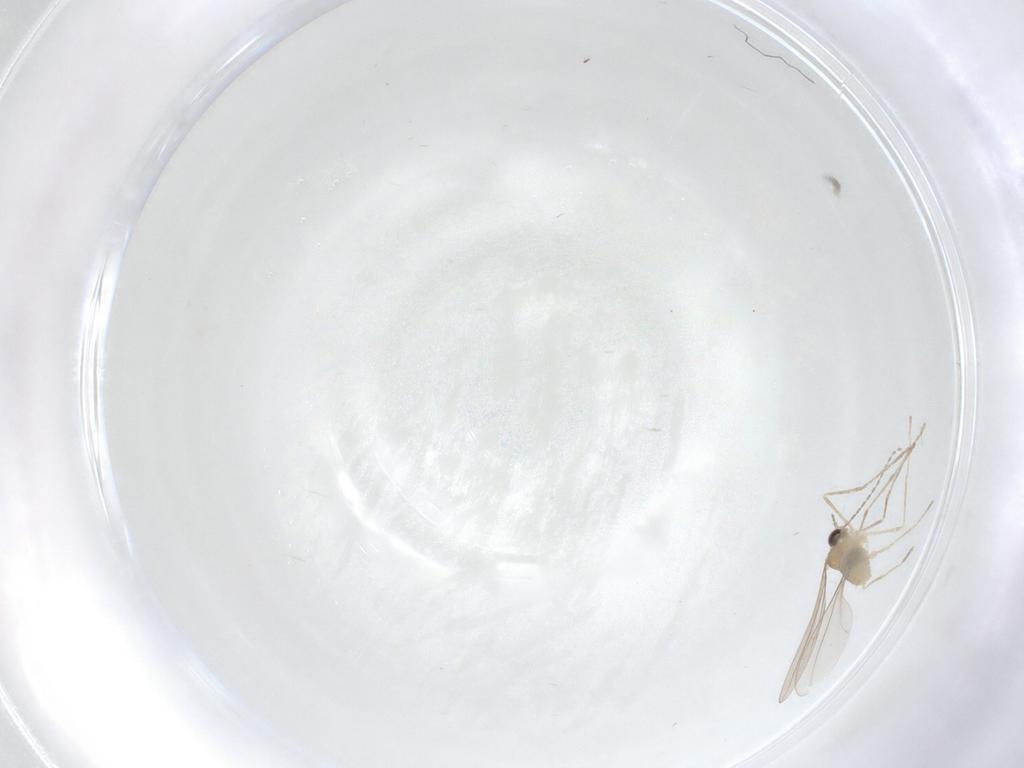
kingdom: Animalia
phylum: Arthropoda
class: Insecta
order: Diptera
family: Cecidomyiidae
